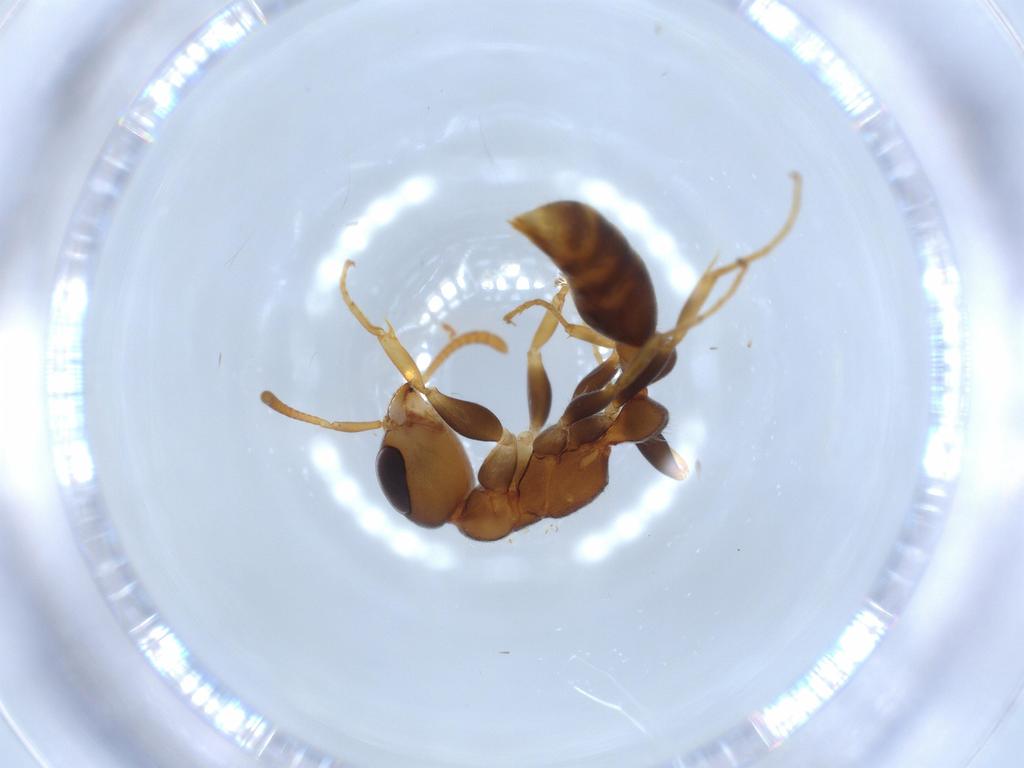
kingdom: Animalia
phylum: Arthropoda
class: Insecta
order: Hymenoptera
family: Formicidae
